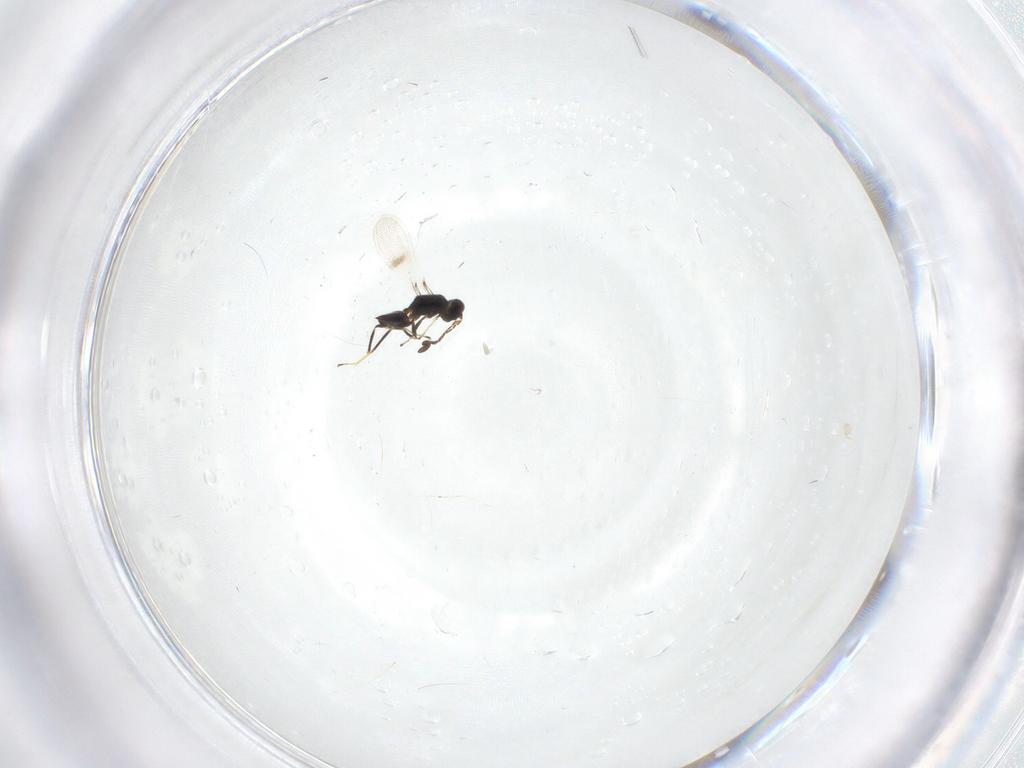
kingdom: Animalia
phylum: Arthropoda
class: Insecta
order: Hymenoptera
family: Mymaridae
